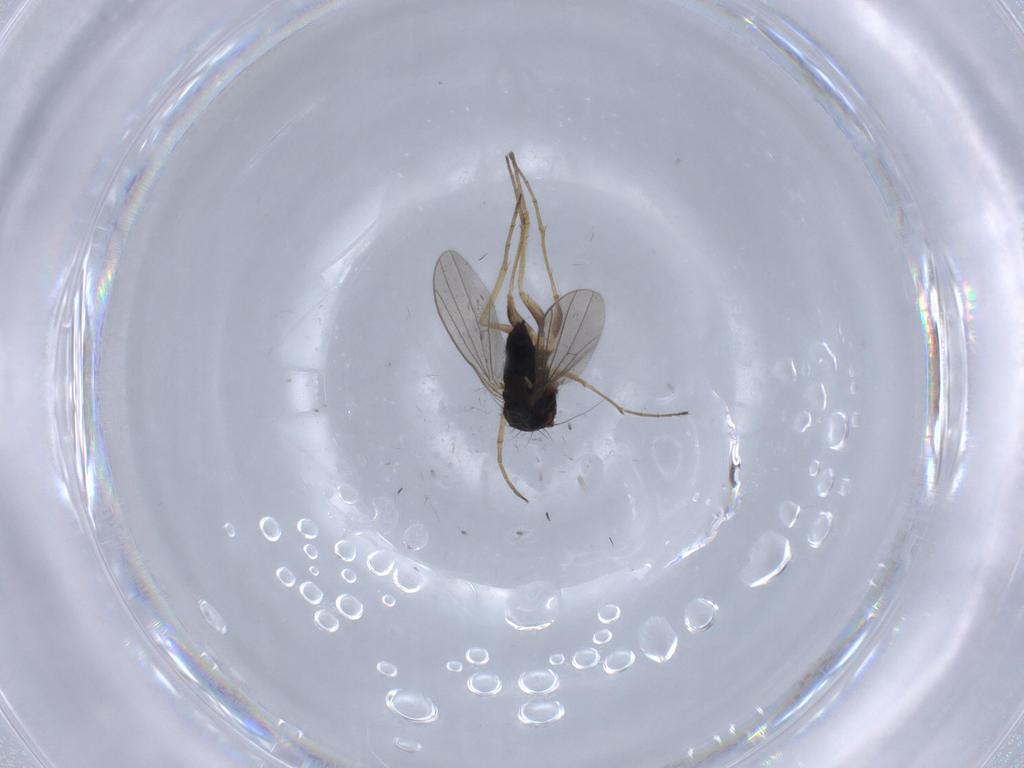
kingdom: Animalia
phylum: Arthropoda
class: Insecta
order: Diptera
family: Dolichopodidae
